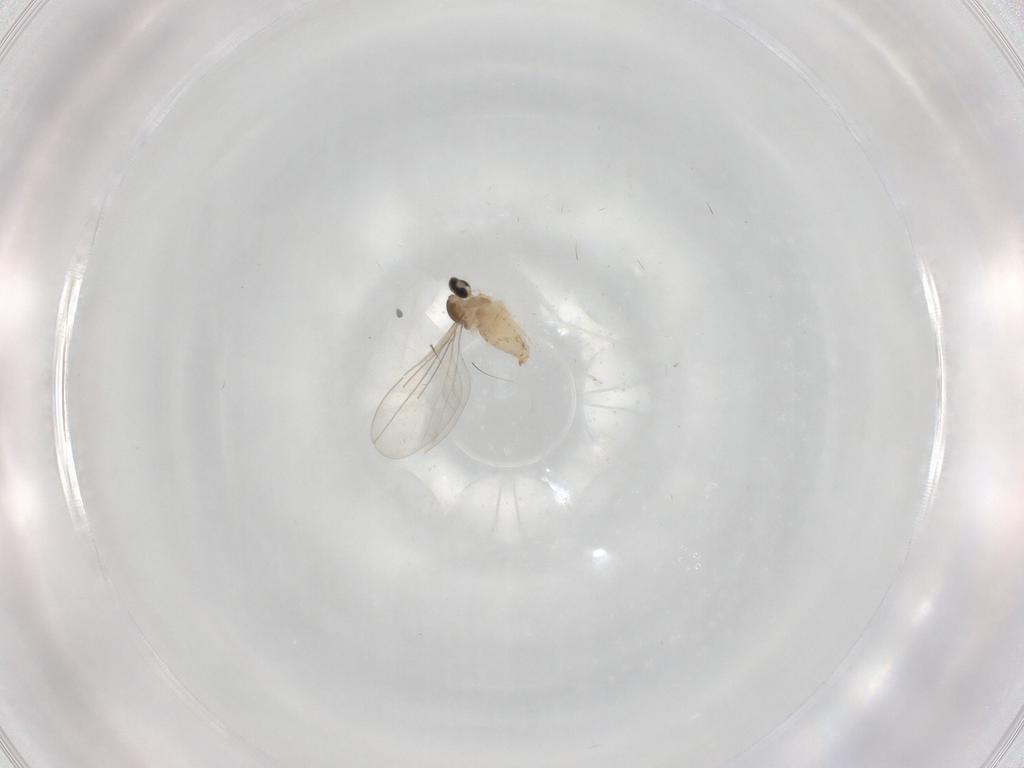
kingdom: Animalia
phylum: Arthropoda
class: Insecta
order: Diptera
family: Cecidomyiidae
